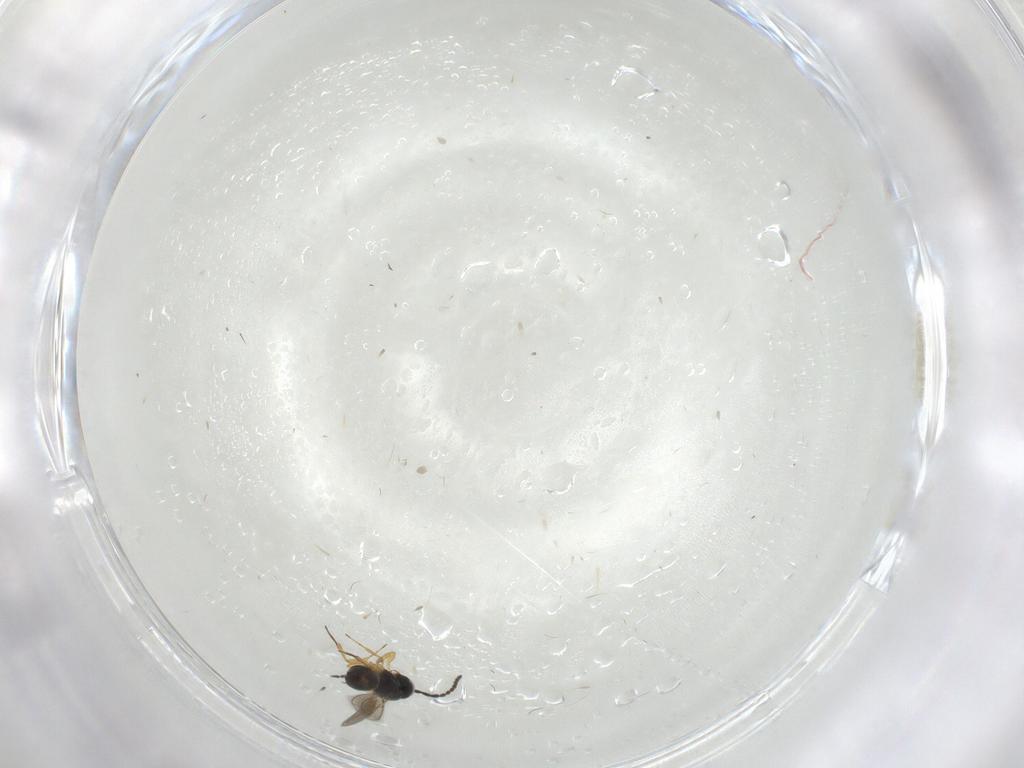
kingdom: Animalia
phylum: Arthropoda
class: Insecta
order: Hymenoptera
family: Scelionidae
